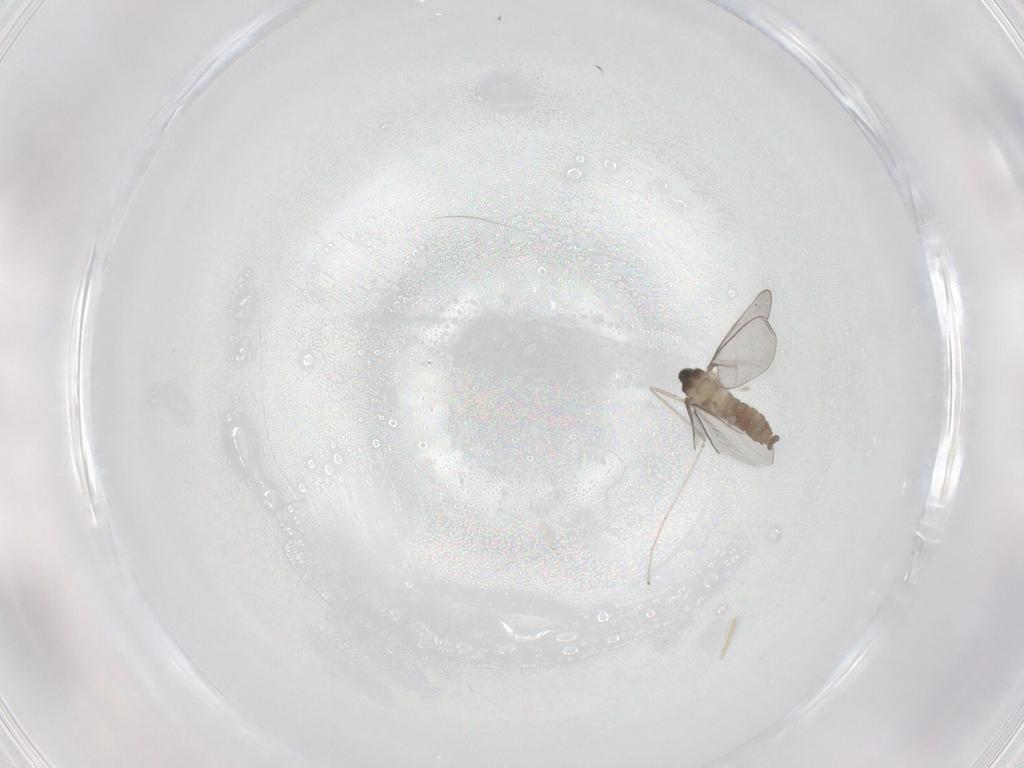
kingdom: Animalia
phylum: Arthropoda
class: Insecta
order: Diptera
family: Cecidomyiidae
